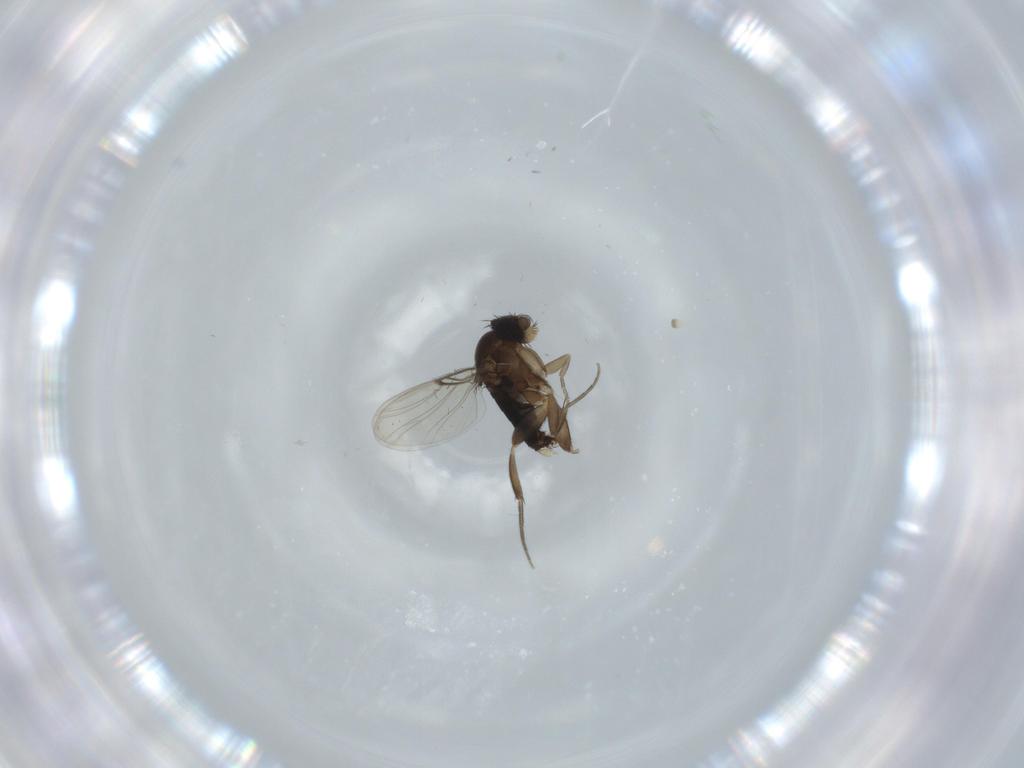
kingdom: Animalia
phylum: Arthropoda
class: Insecta
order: Diptera
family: Phoridae
